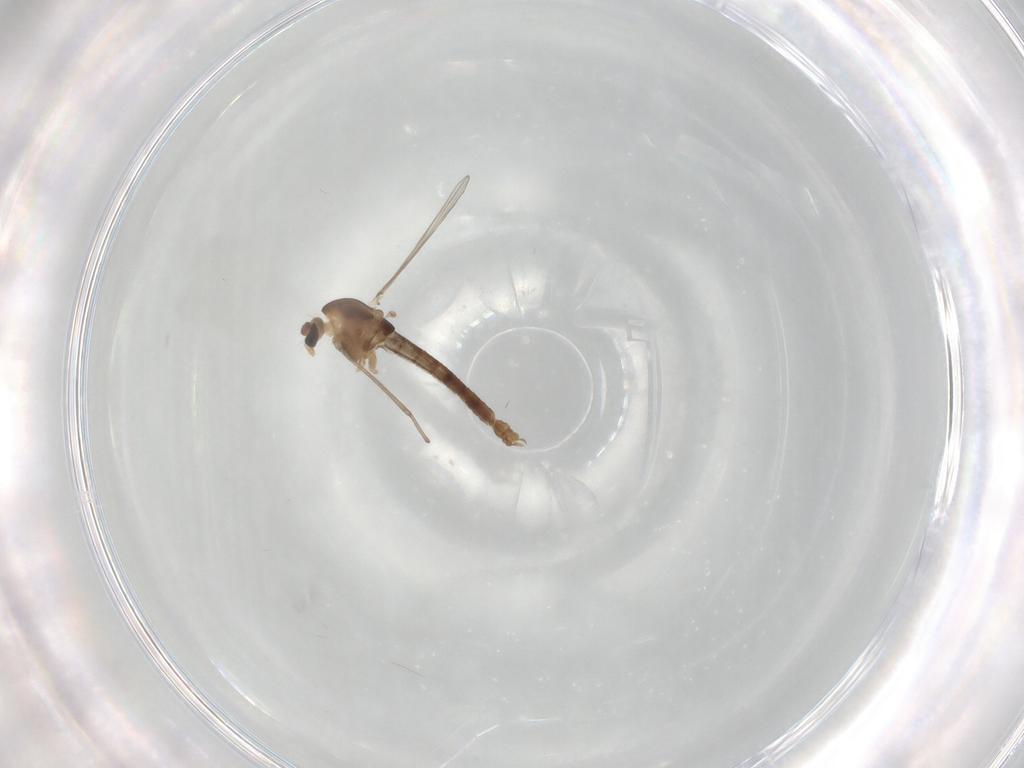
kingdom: Animalia
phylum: Arthropoda
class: Insecta
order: Diptera
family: Chironomidae
